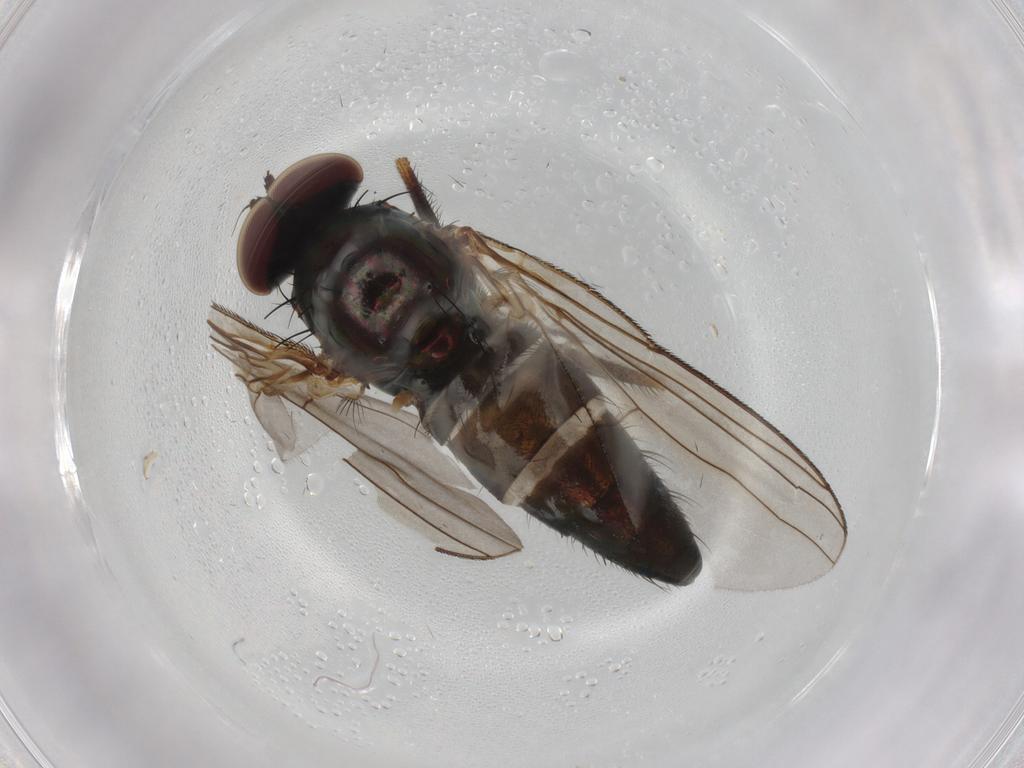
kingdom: Animalia
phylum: Arthropoda
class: Insecta
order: Diptera
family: Dolichopodidae
